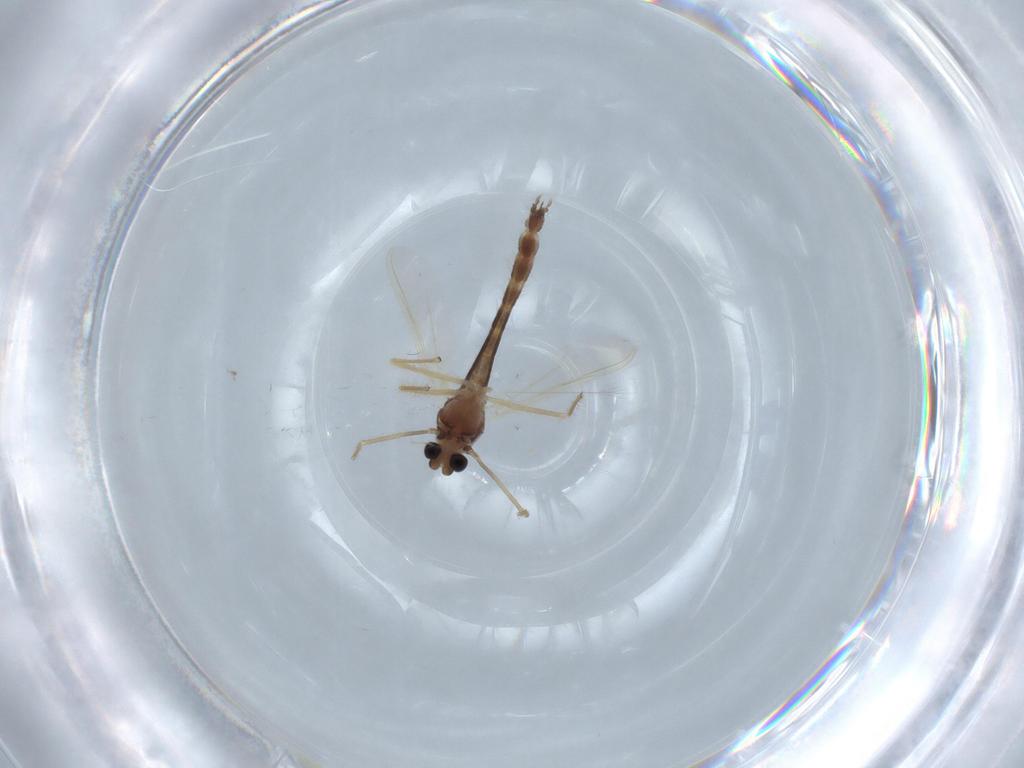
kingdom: Animalia
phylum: Arthropoda
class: Insecta
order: Diptera
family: Chironomidae
